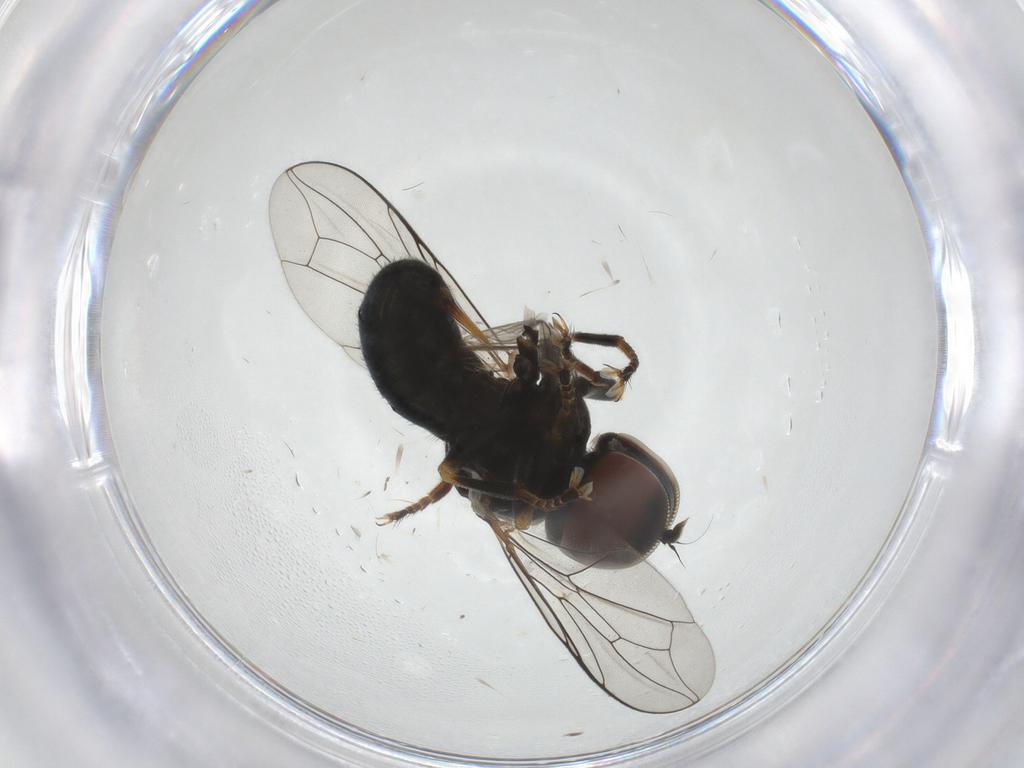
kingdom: Animalia
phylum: Arthropoda
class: Insecta
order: Diptera
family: Pipunculidae
